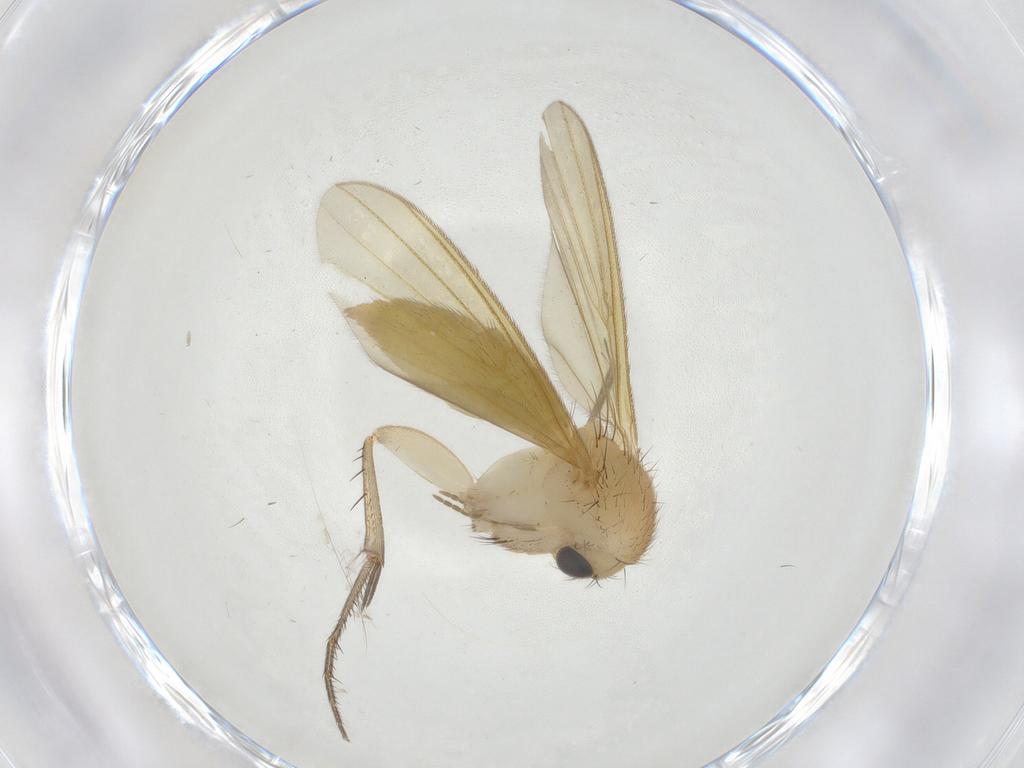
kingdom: Animalia
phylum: Arthropoda
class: Insecta
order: Diptera
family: Phoridae
